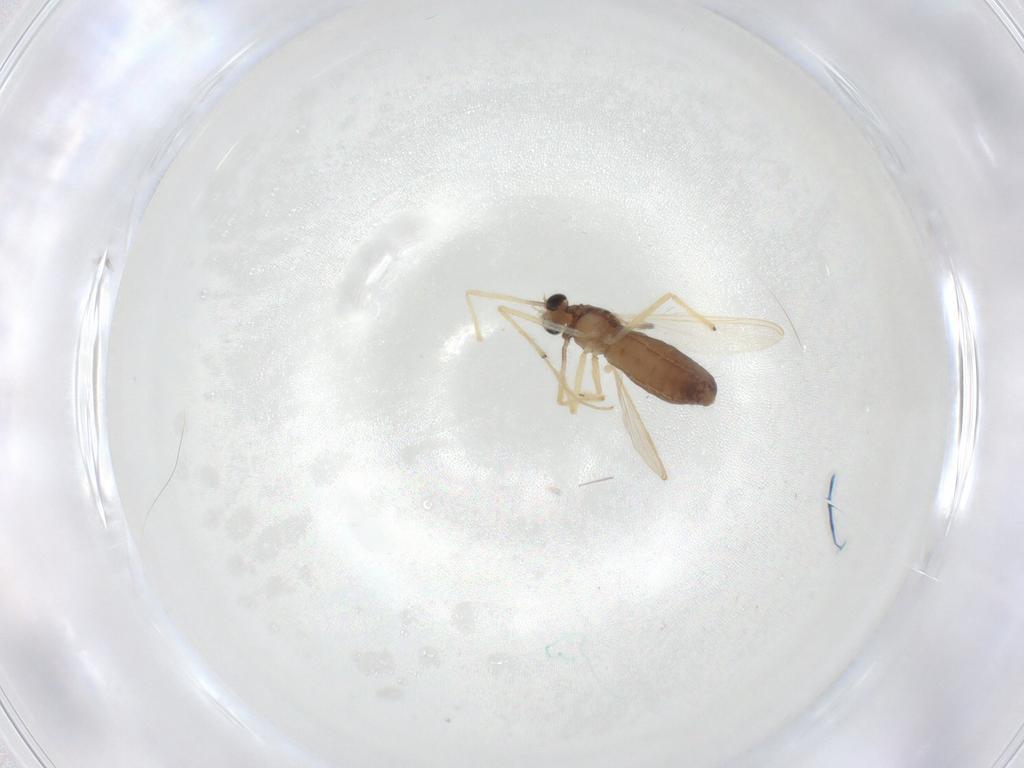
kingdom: Animalia
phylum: Arthropoda
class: Insecta
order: Diptera
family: Chironomidae
